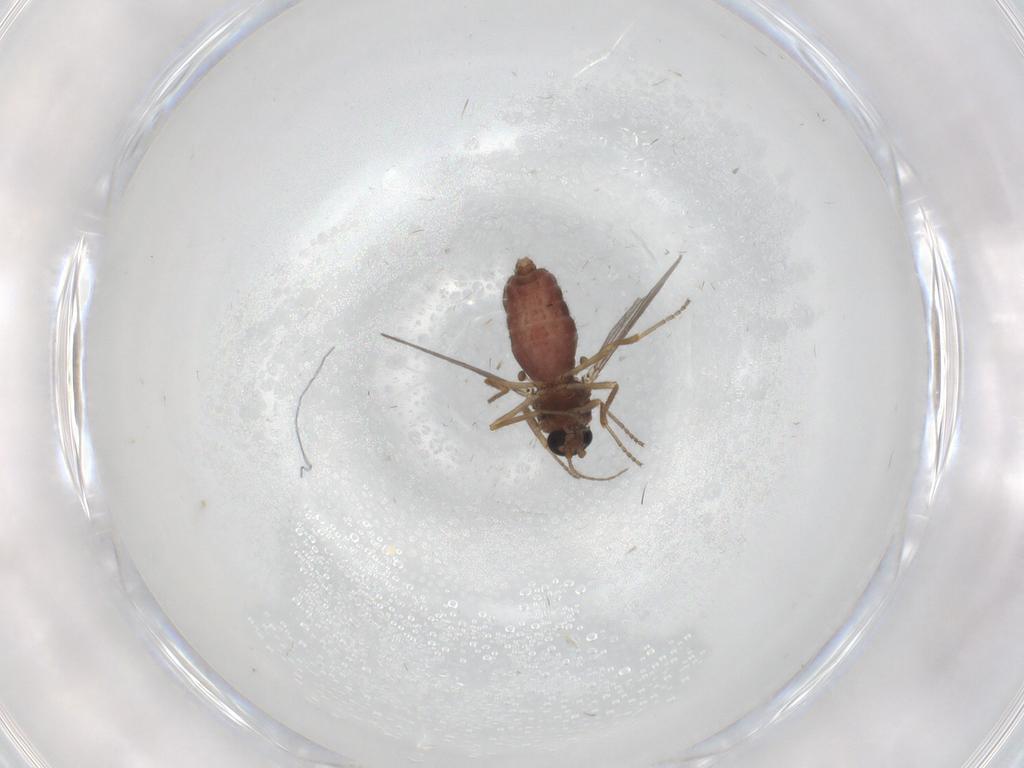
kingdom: Animalia
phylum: Arthropoda
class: Insecta
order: Diptera
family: Ceratopogonidae
